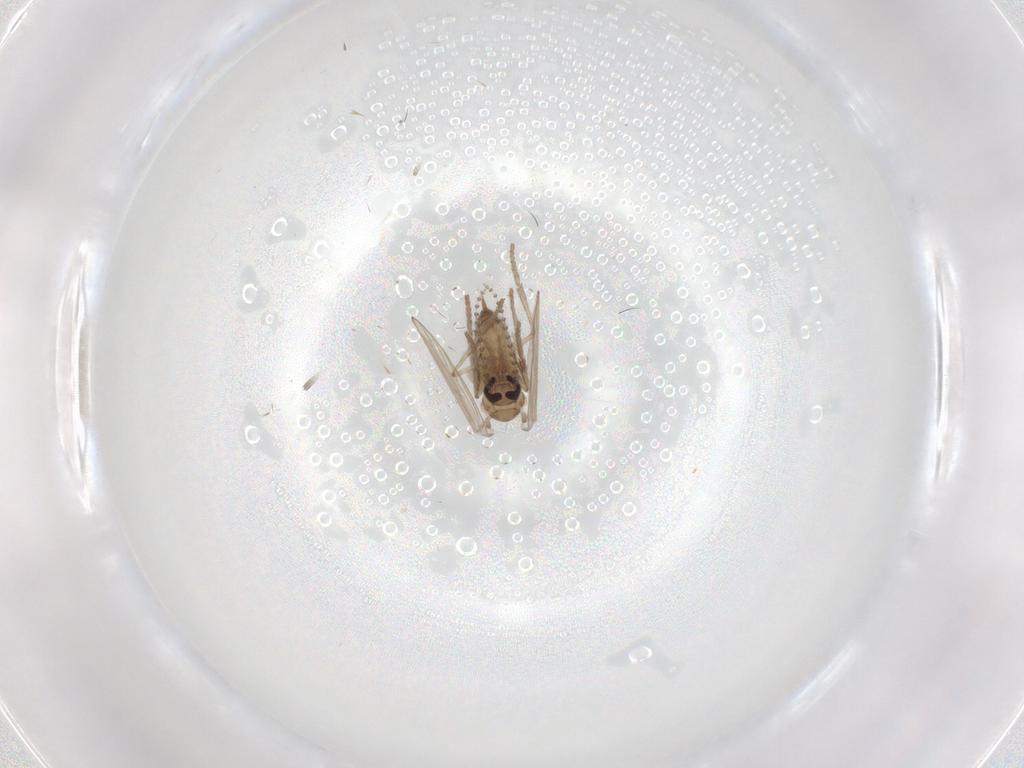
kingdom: Animalia
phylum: Arthropoda
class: Insecta
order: Diptera
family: Psychodidae
